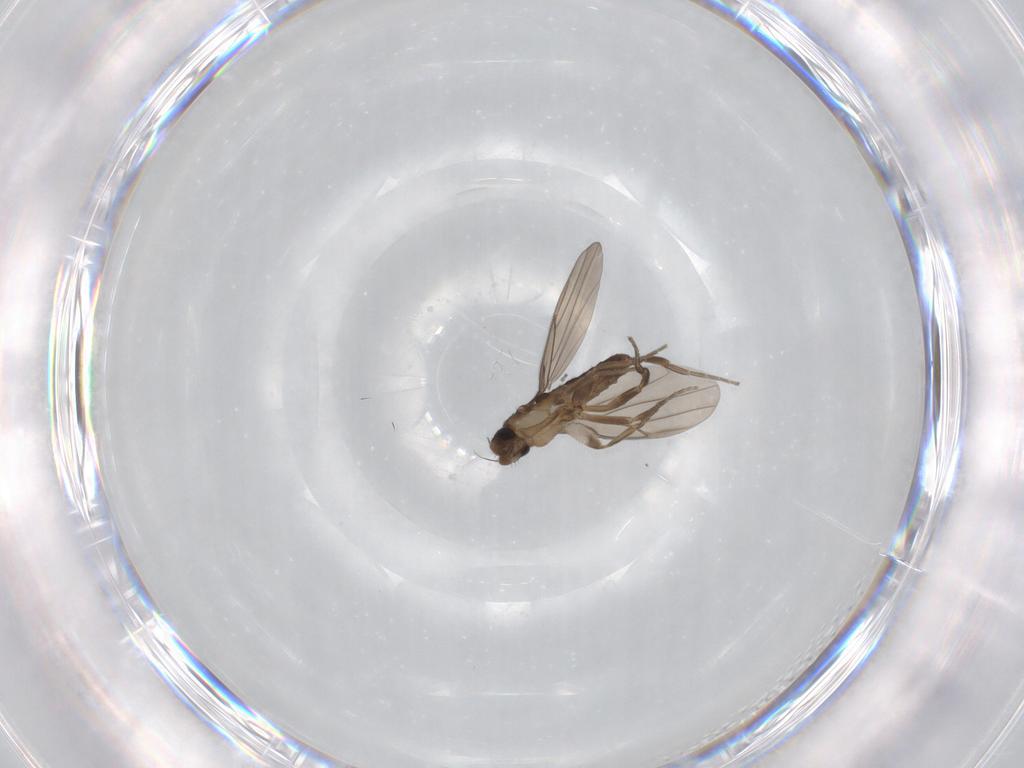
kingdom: Animalia
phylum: Arthropoda
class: Insecta
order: Diptera
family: Limoniidae
